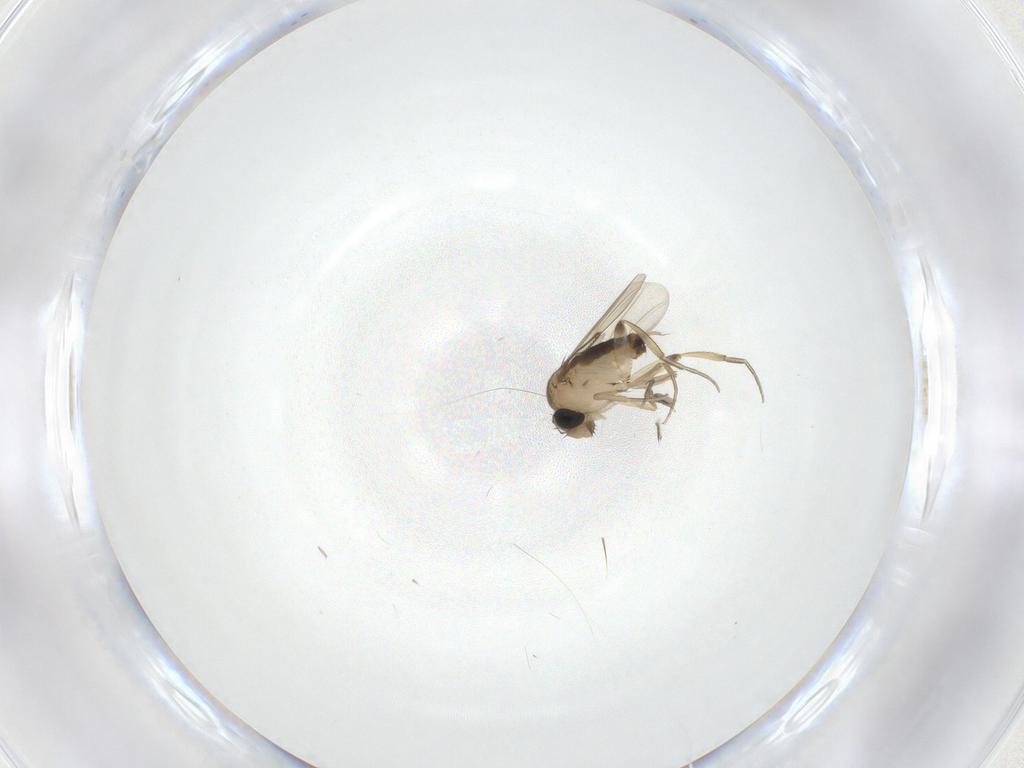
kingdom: Animalia
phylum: Arthropoda
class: Insecta
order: Diptera
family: Phoridae
